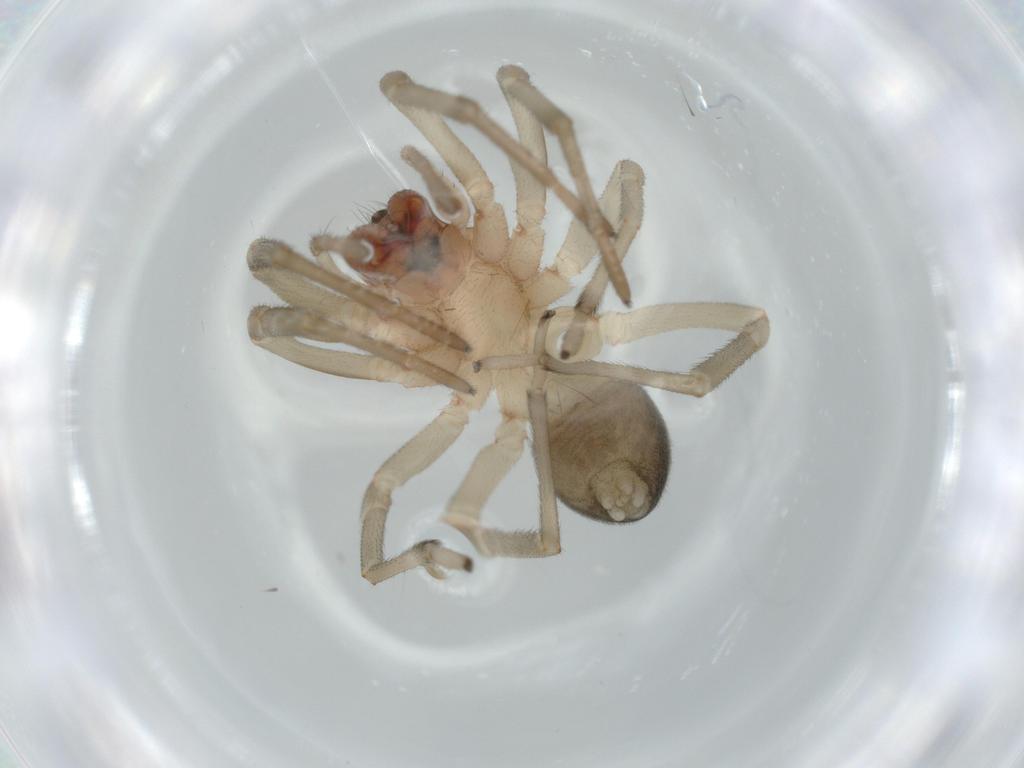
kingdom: Animalia
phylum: Arthropoda
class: Arachnida
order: Araneae
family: Trachelidae
